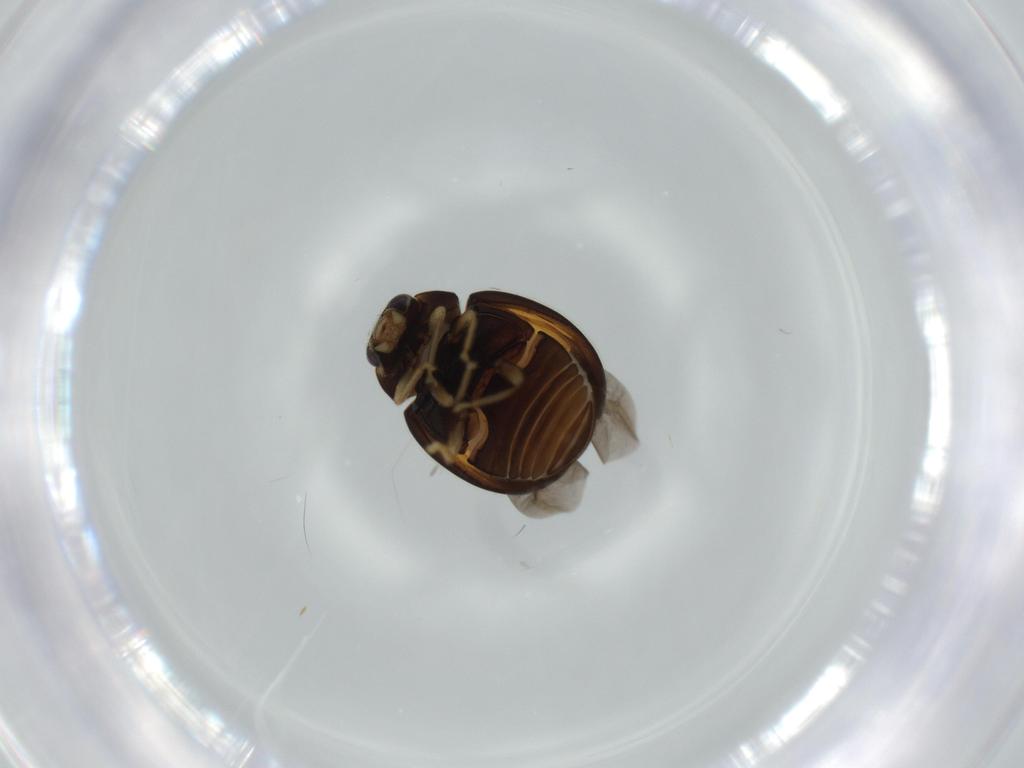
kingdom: Animalia
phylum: Arthropoda
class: Insecta
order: Coleoptera
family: Coccinellidae
